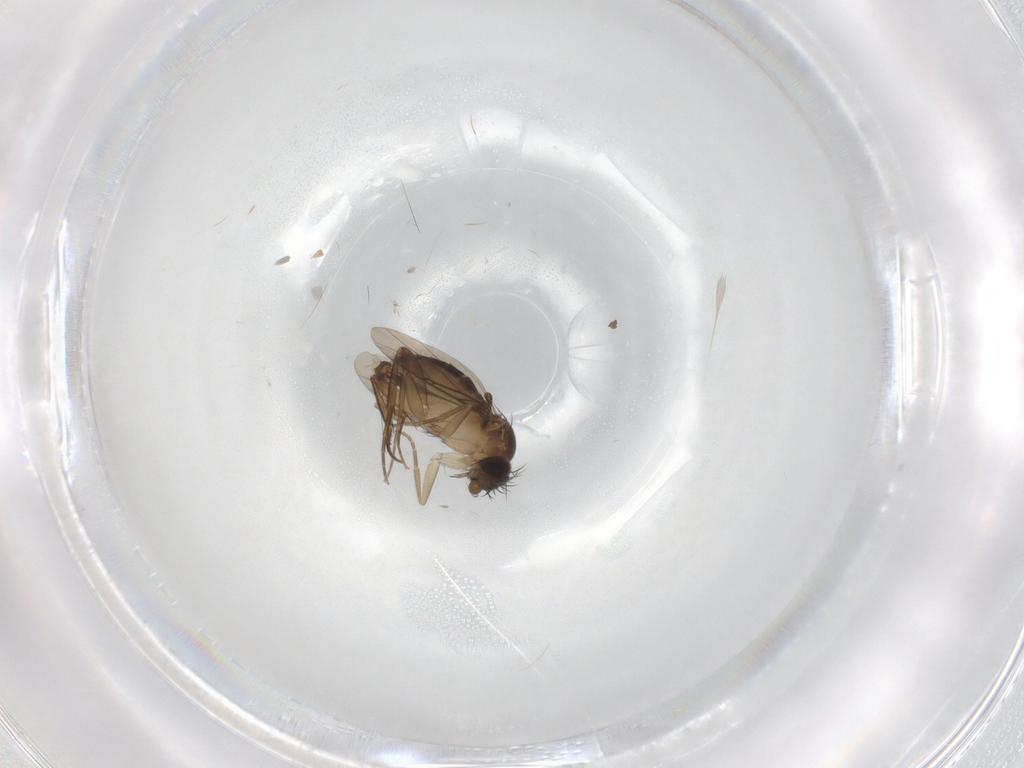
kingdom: Animalia
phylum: Arthropoda
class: Insecta
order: Diptera
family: Phoridae
